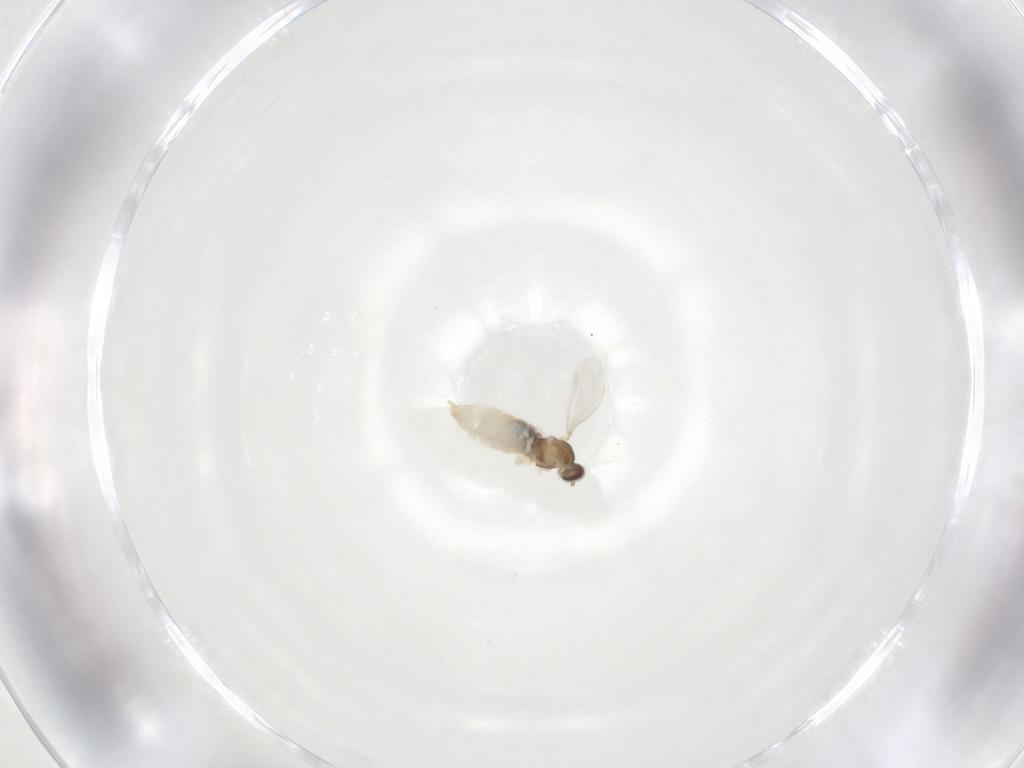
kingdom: Animalia
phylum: Arthropoda
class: Insecta
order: Diptera
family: Cecidomyiidae
